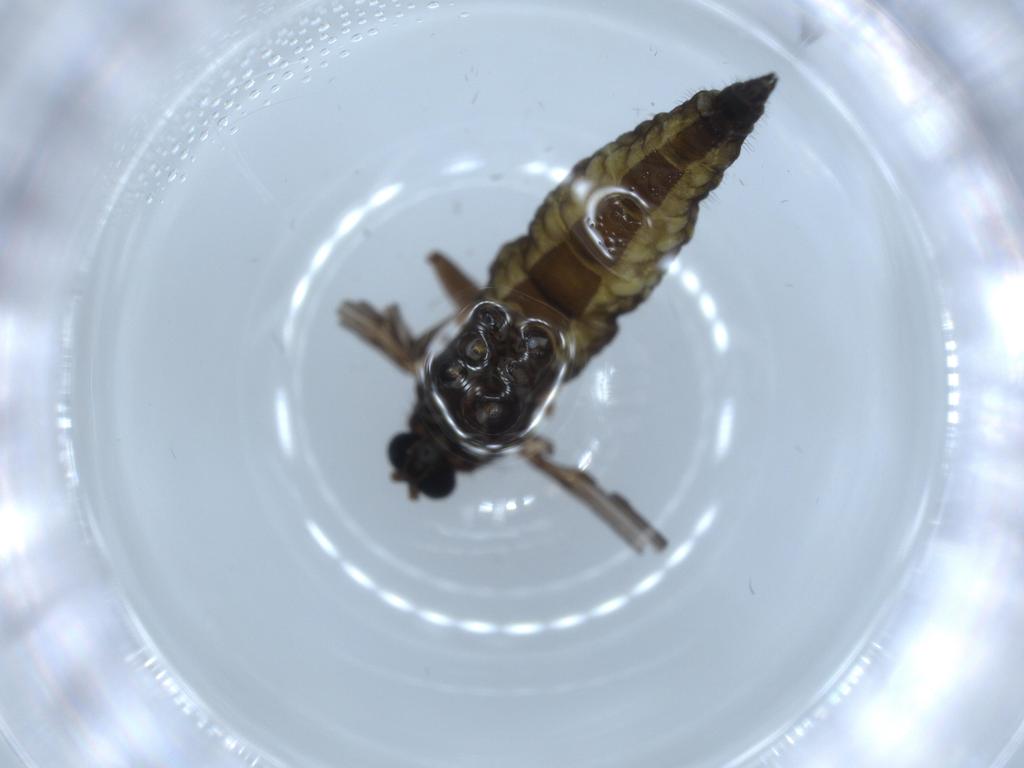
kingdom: Animalia
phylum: Arthropoda
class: Insecta
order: Diptera
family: Sciaridae
